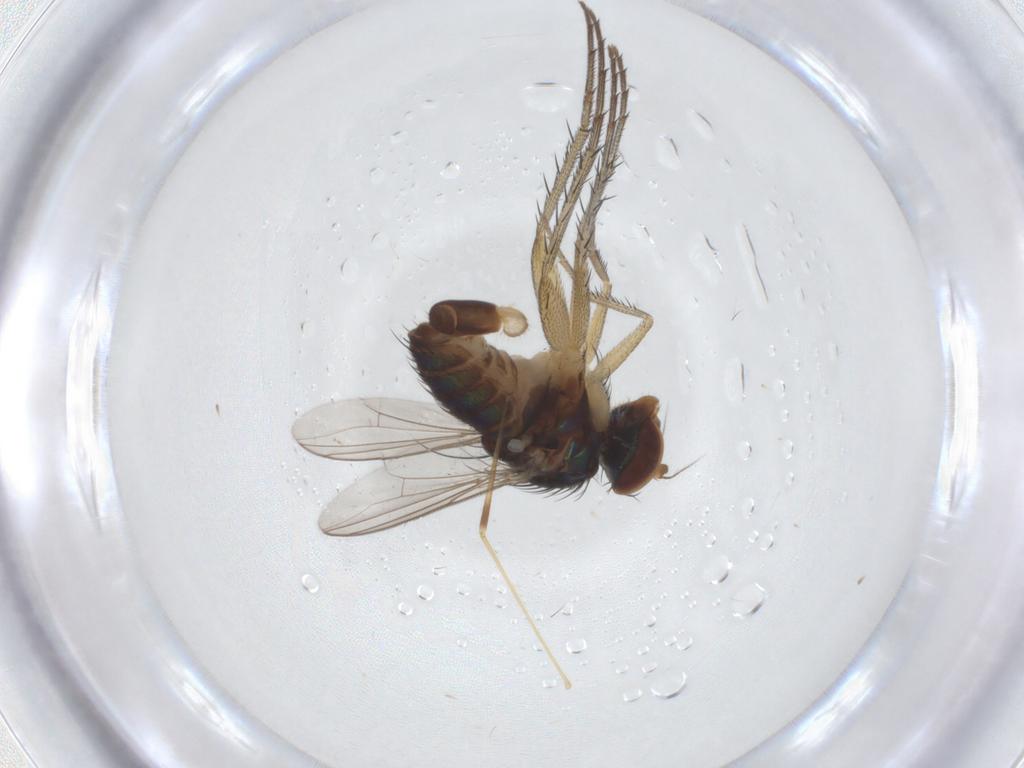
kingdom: Animalia
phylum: Arthropoda
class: Insecta
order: Diptera
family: Dolichopodidae
